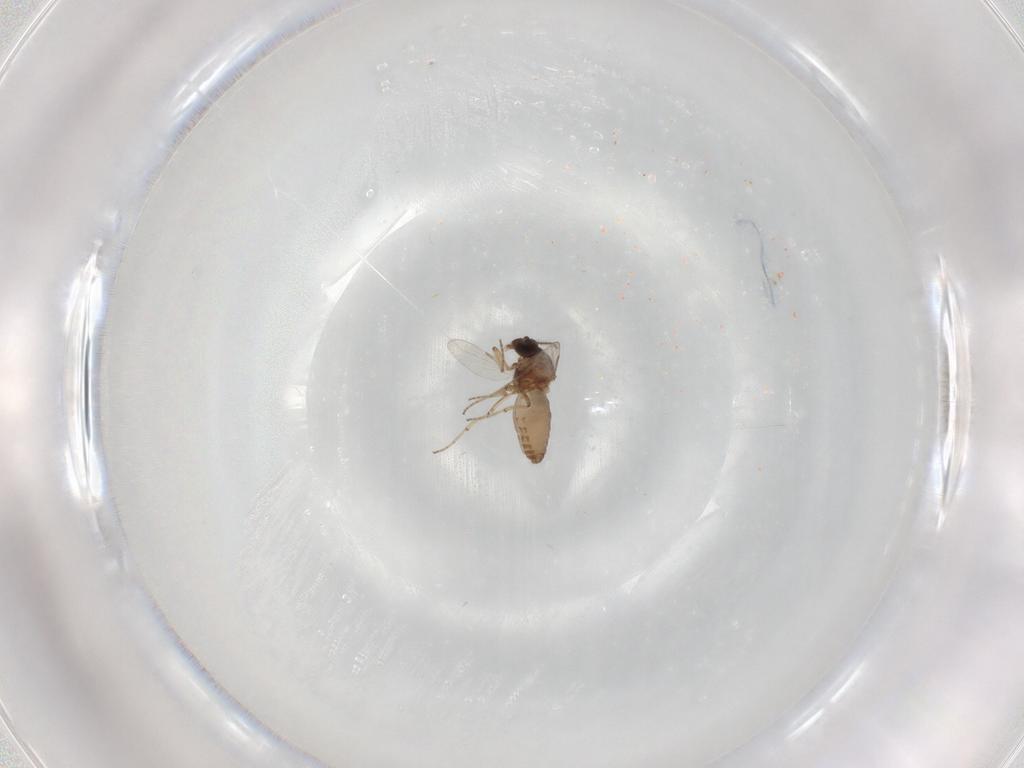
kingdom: Animalia
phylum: Arthropoda
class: Insecta
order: Diptera
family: Ceratopogonidae
